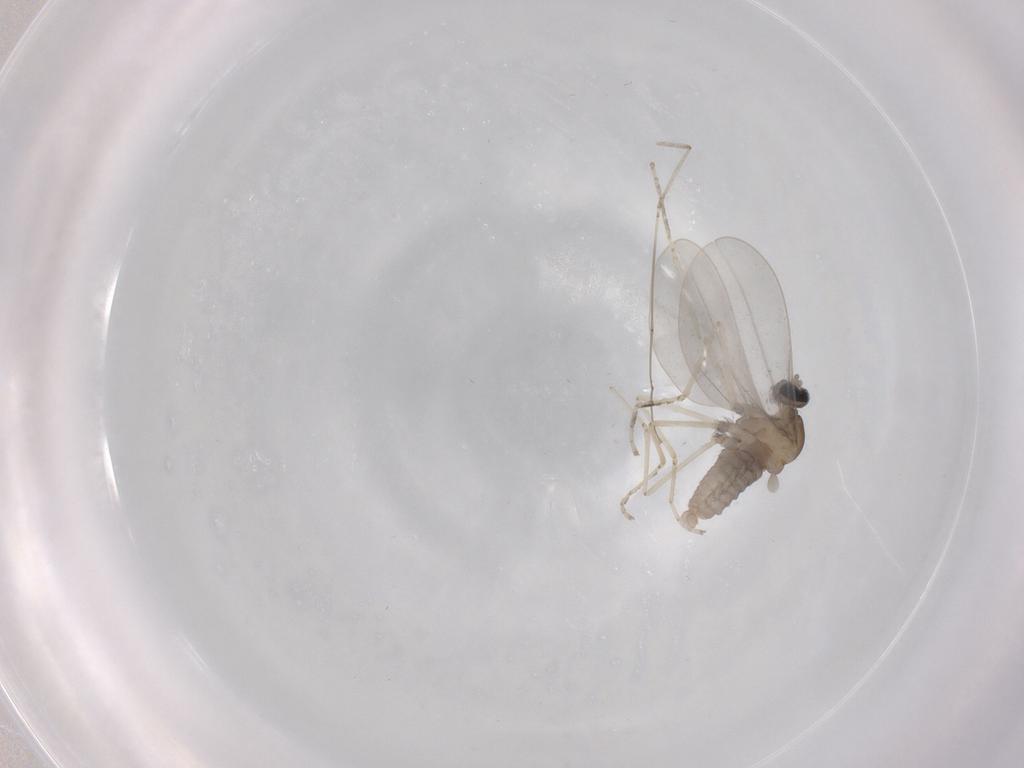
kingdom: Animalia
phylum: Arthropoda
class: Insecta
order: Diptera
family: Cecidomyiidae
